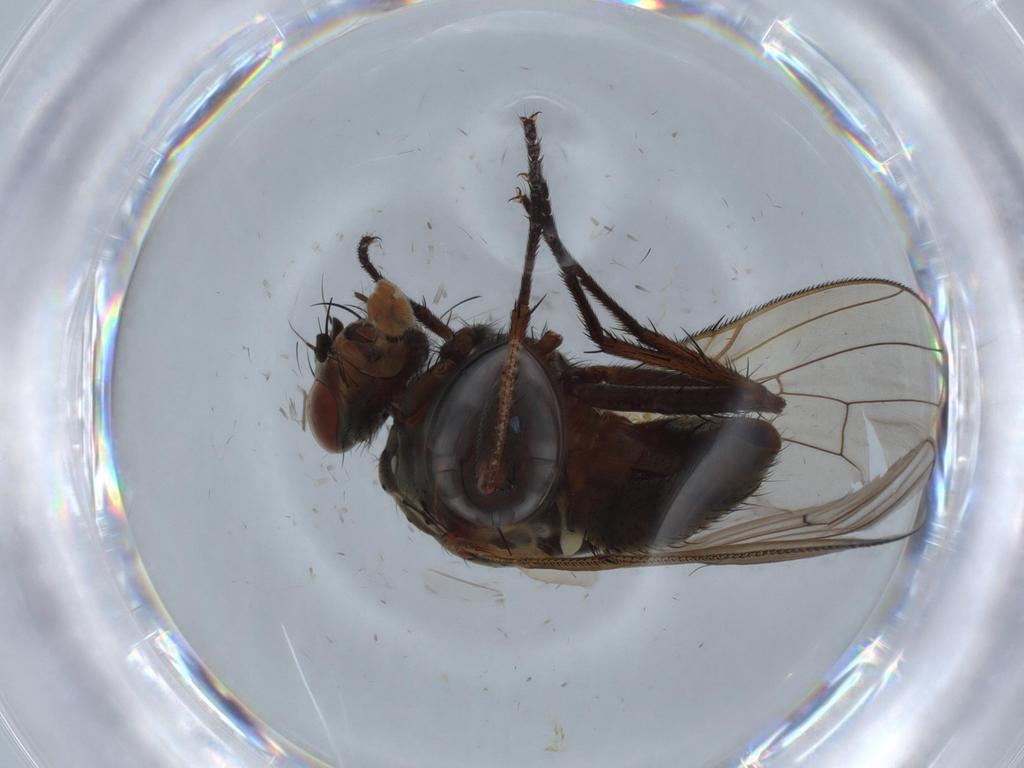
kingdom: Animalia
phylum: Arthropoda
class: Insecta
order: Diptera
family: Anthomyiidae
